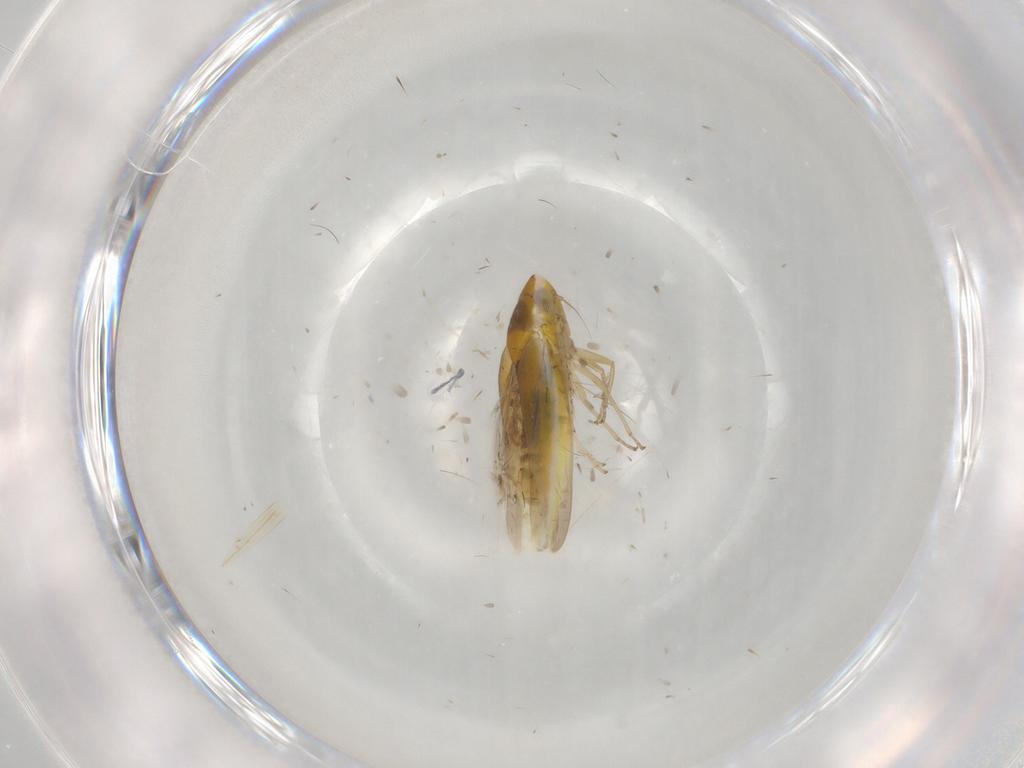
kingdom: Animalia
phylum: Arthropoda
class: Insecta
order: Hemiptera
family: Cicadellidae
